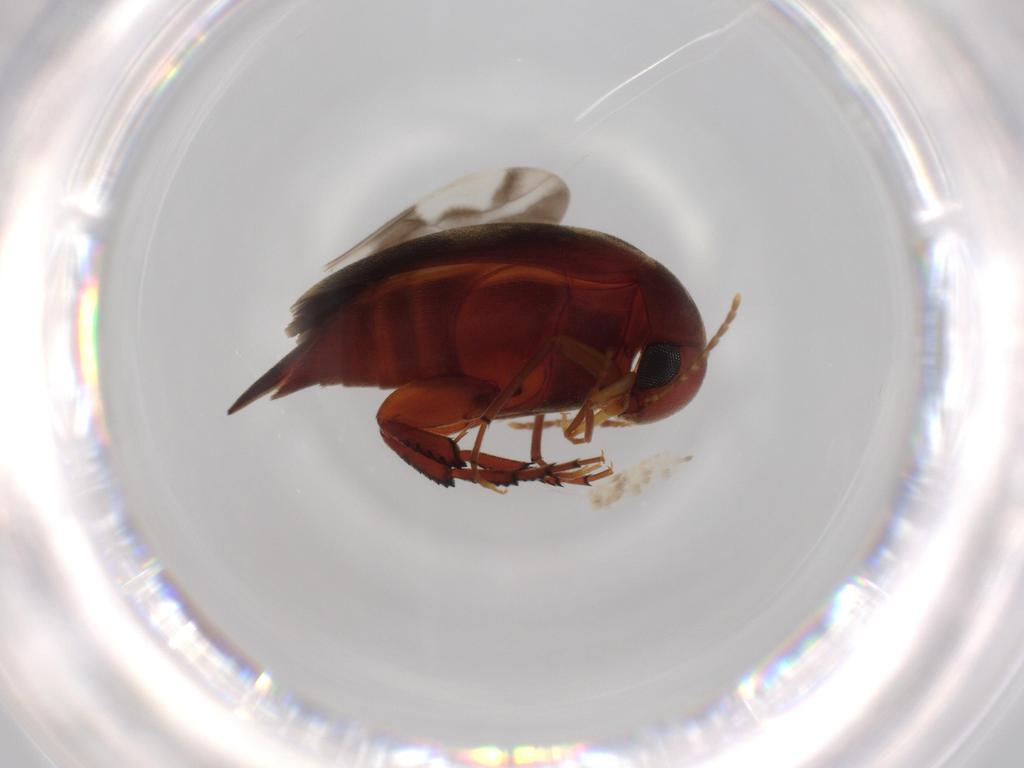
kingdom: Animalia
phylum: Arthropoda
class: Insecta
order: Coleoptera
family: Mordellidae
